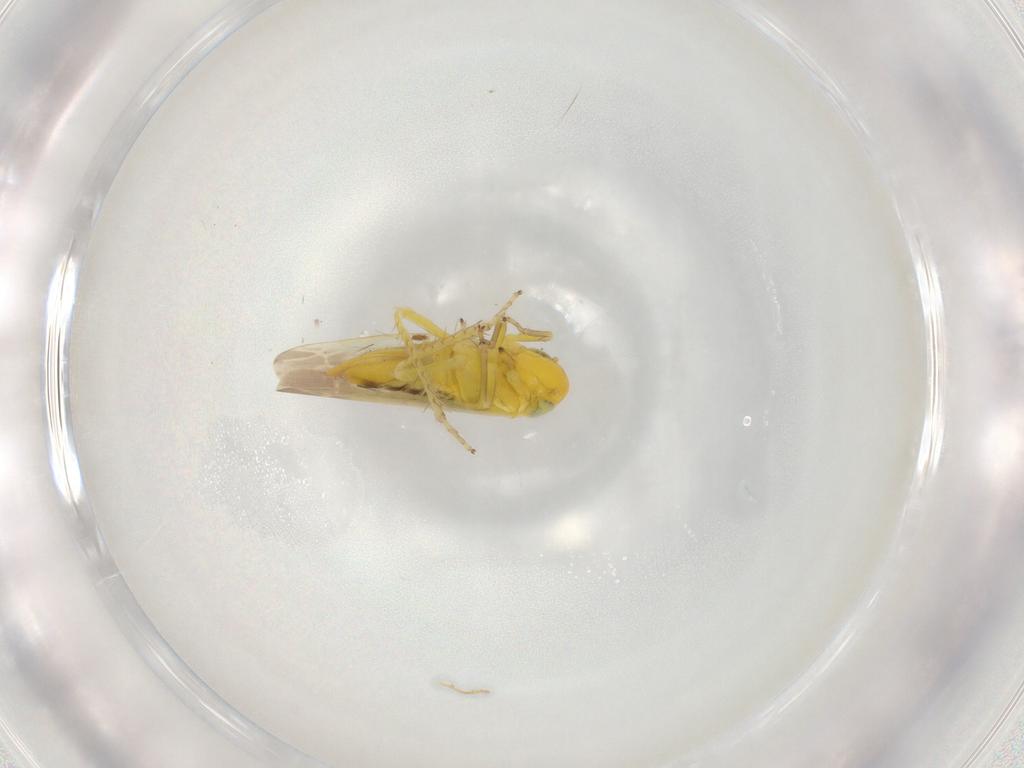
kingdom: Animalia
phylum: Arthropoda
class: Insecta
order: Hemiptera
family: Cicadellidae
